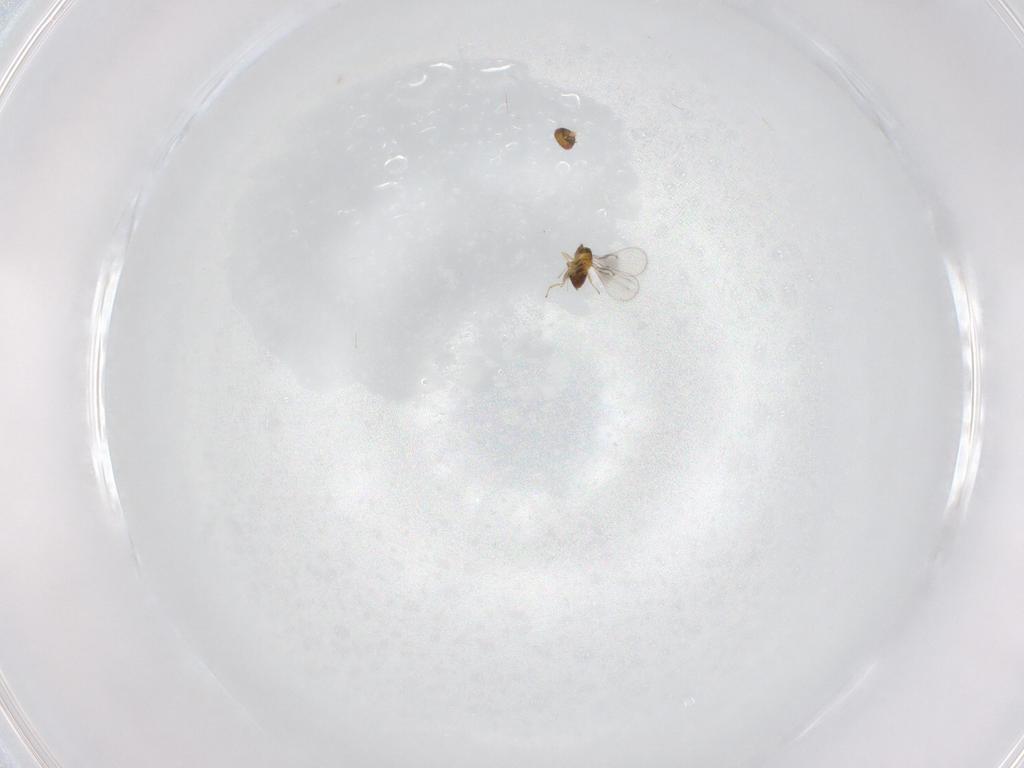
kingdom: Animalia
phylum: Arthropoda
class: Insecta
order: Hymenoptera
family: Trichogrammatidae
